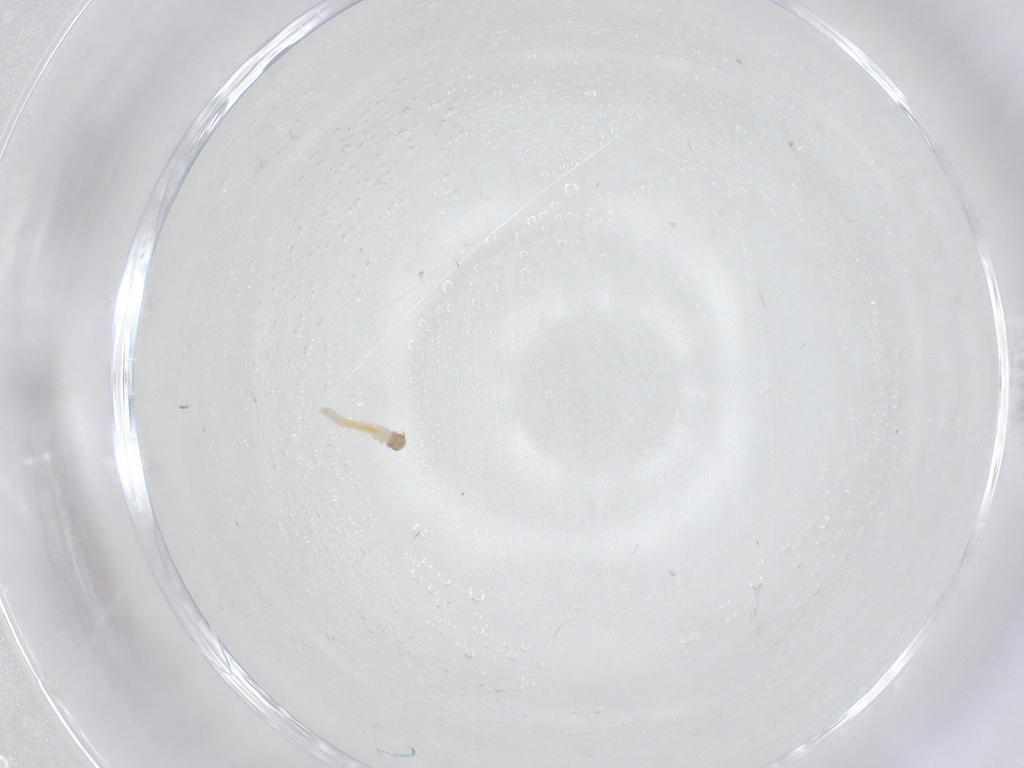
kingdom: Animalia
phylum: Arthropoda
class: Insecta
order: Lepidoptera
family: Lecithoceridae
